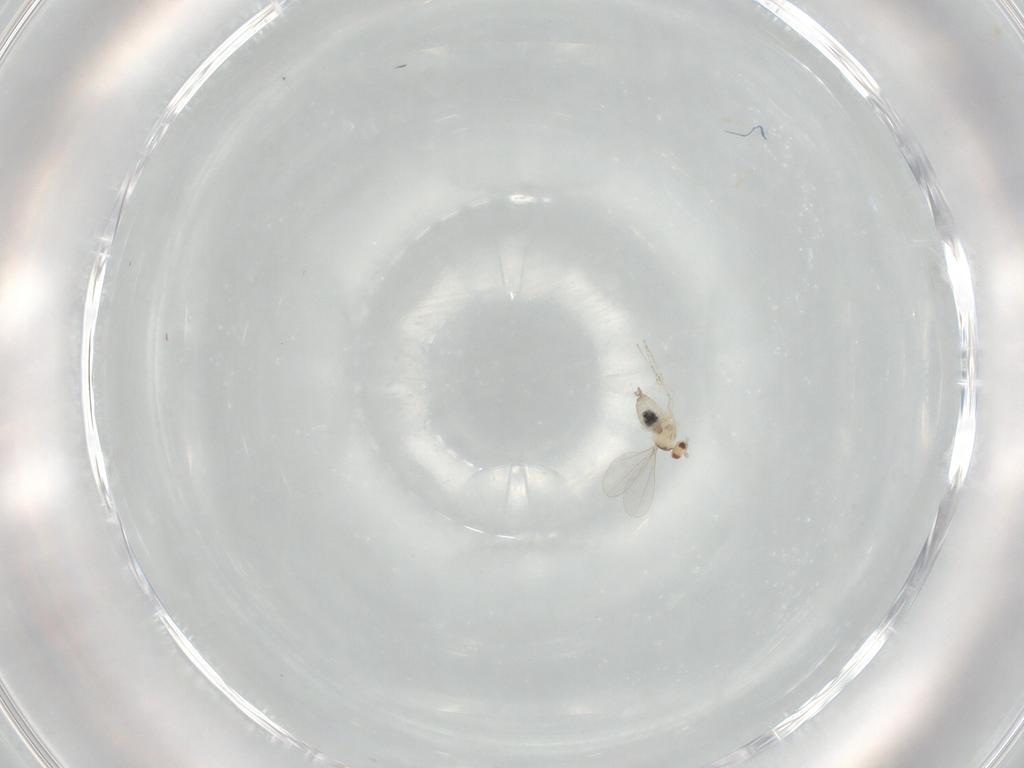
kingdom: Animalia
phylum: Arthropoda
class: Insecta
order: Diptera
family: Cecidomyiidae
